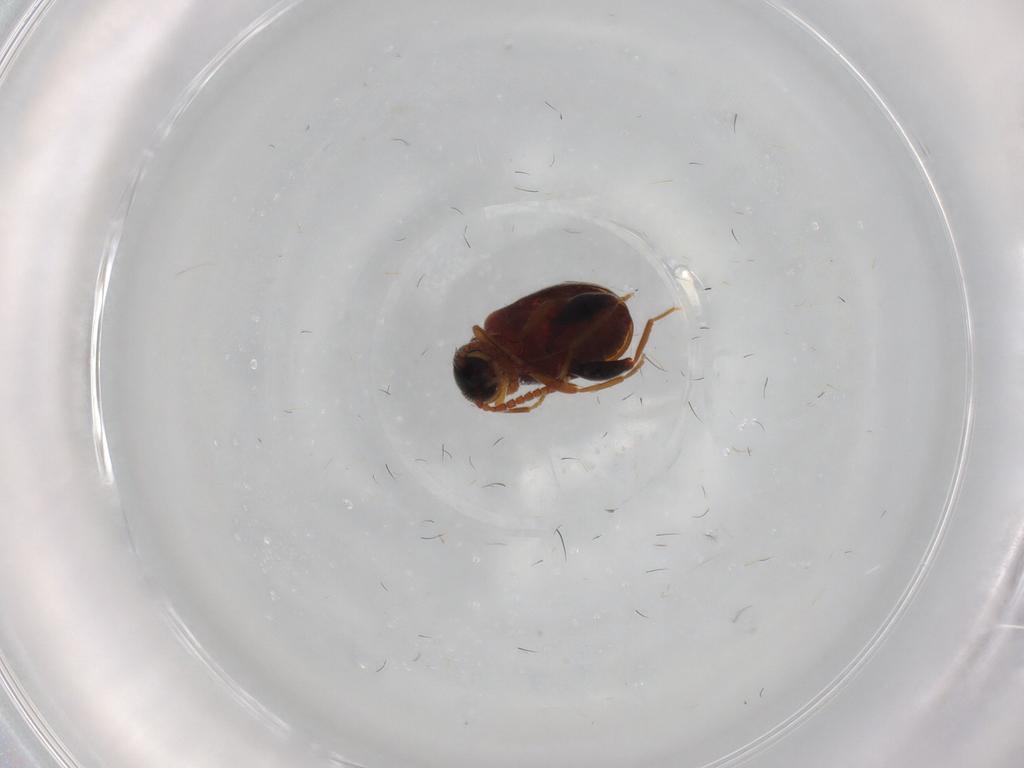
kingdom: Animalia
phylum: Arthropoda
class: Insecta
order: Coleoptera
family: Aderidae
